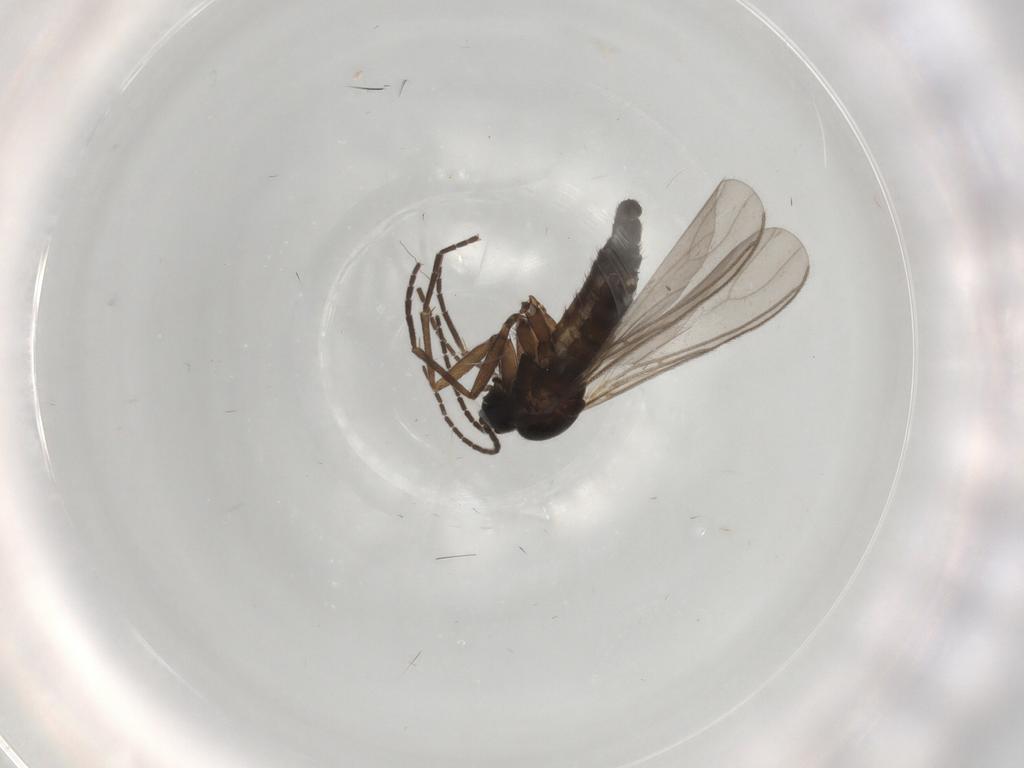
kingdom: Animalia
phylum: Arthropoda
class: Insecta
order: Diptera
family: Sciaridae
